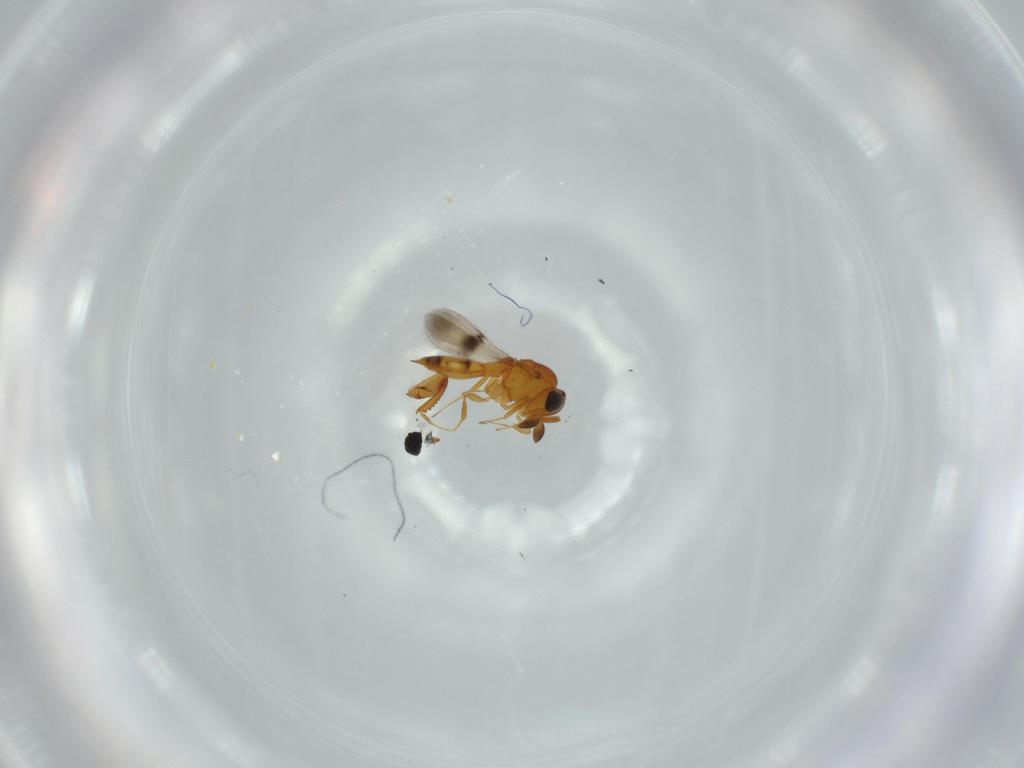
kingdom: Animalia
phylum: Arthropoda
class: Insecta
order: Hymenoptera
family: Scelionidae
